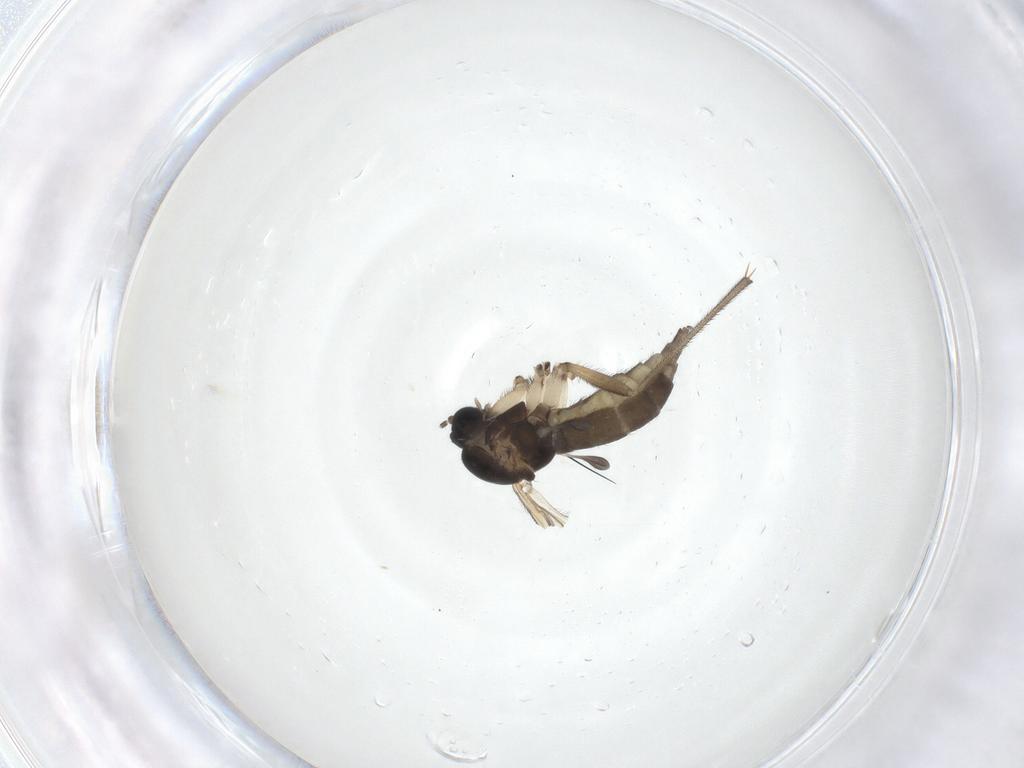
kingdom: Animalia
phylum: Arthropoda
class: Insecta
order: Diptera
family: Sciaridae
